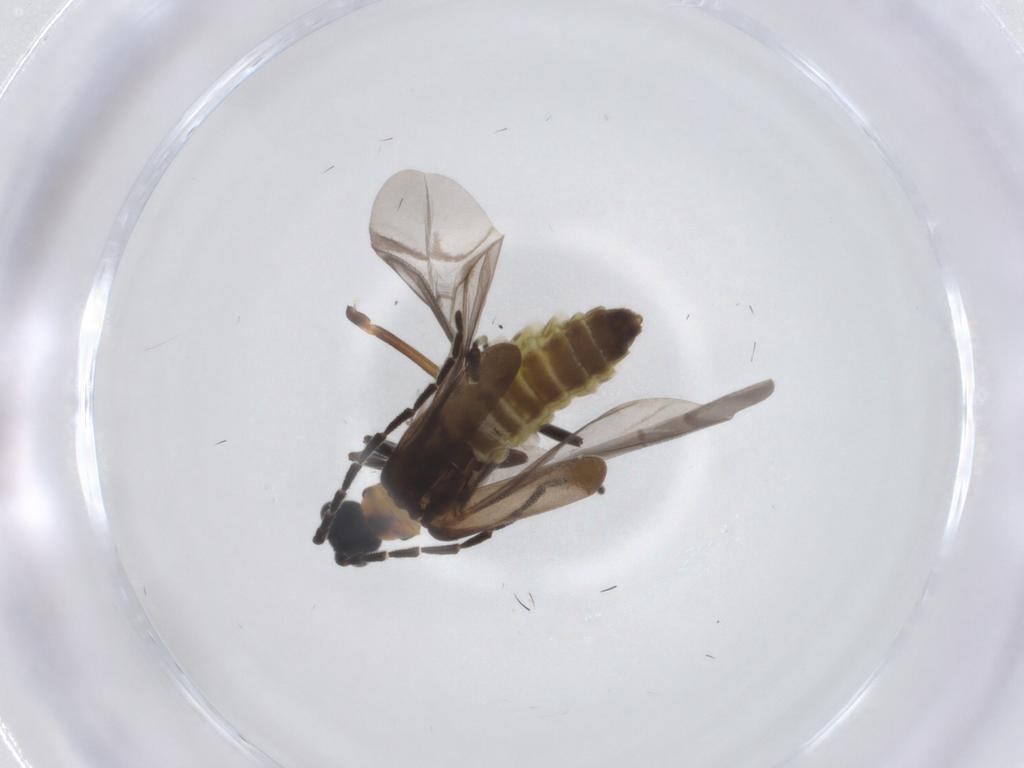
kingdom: Animalia
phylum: Arthropoda
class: Insecta
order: Coleoptera
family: Cantharidae
